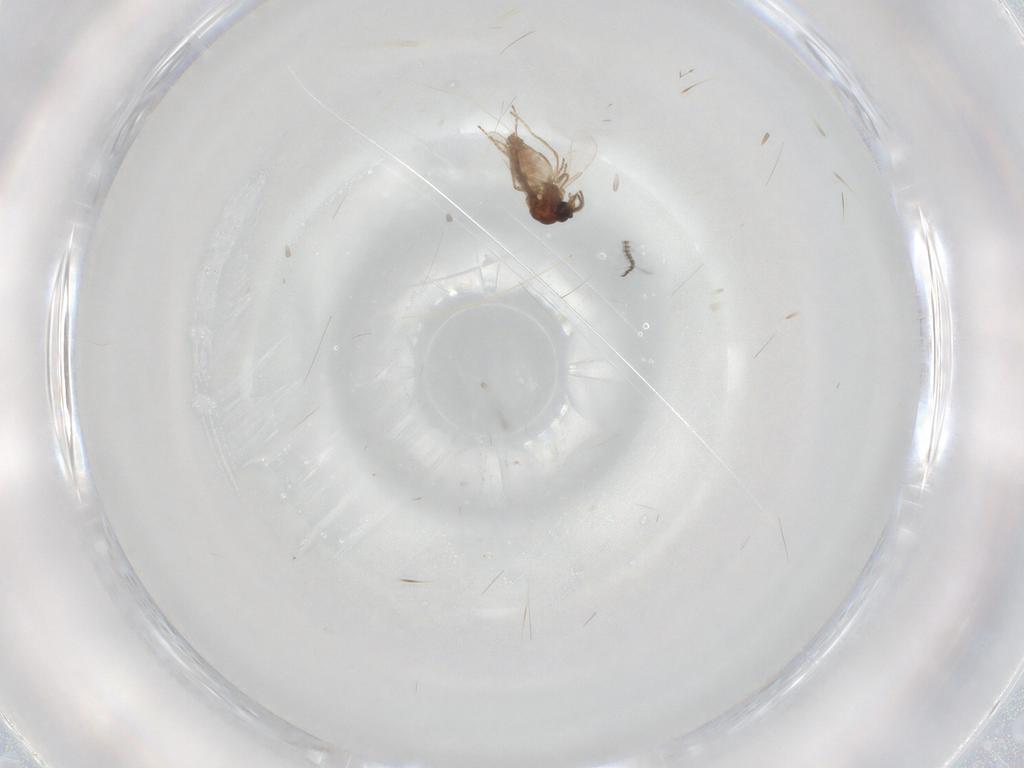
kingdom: Animalia
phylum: Arthropoda
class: Insecta
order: Diptera
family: Ceratopogonidae
